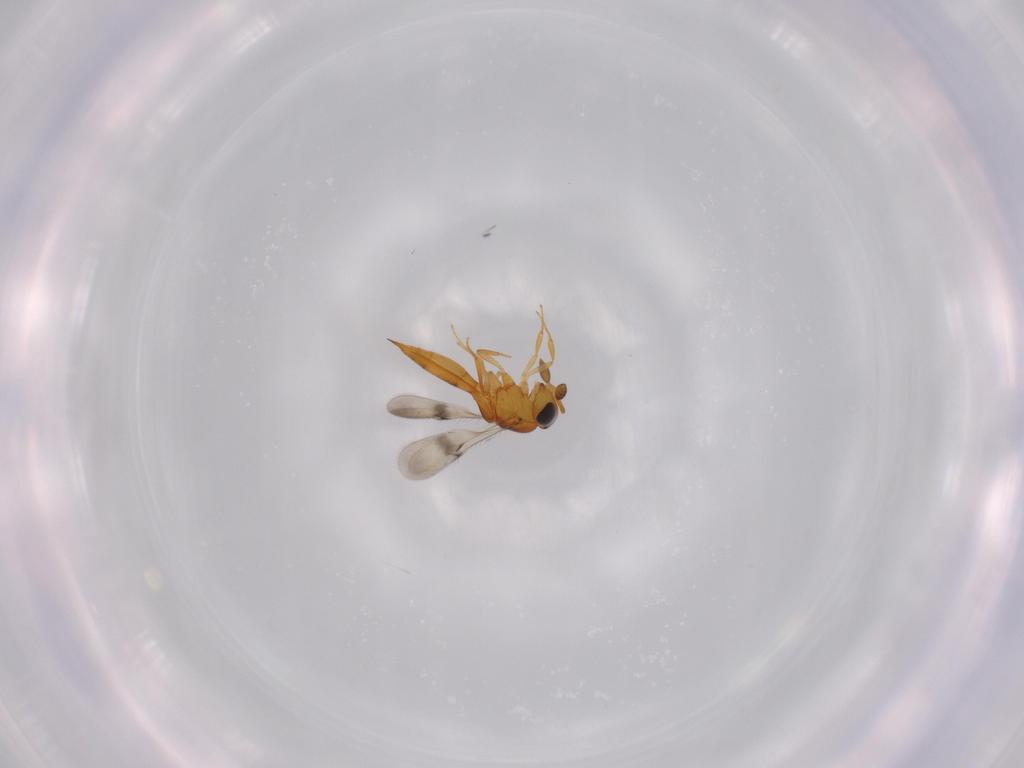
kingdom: Animalia
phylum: Arthropoda
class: Insecta
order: Hymenoptera
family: Scelionidae
